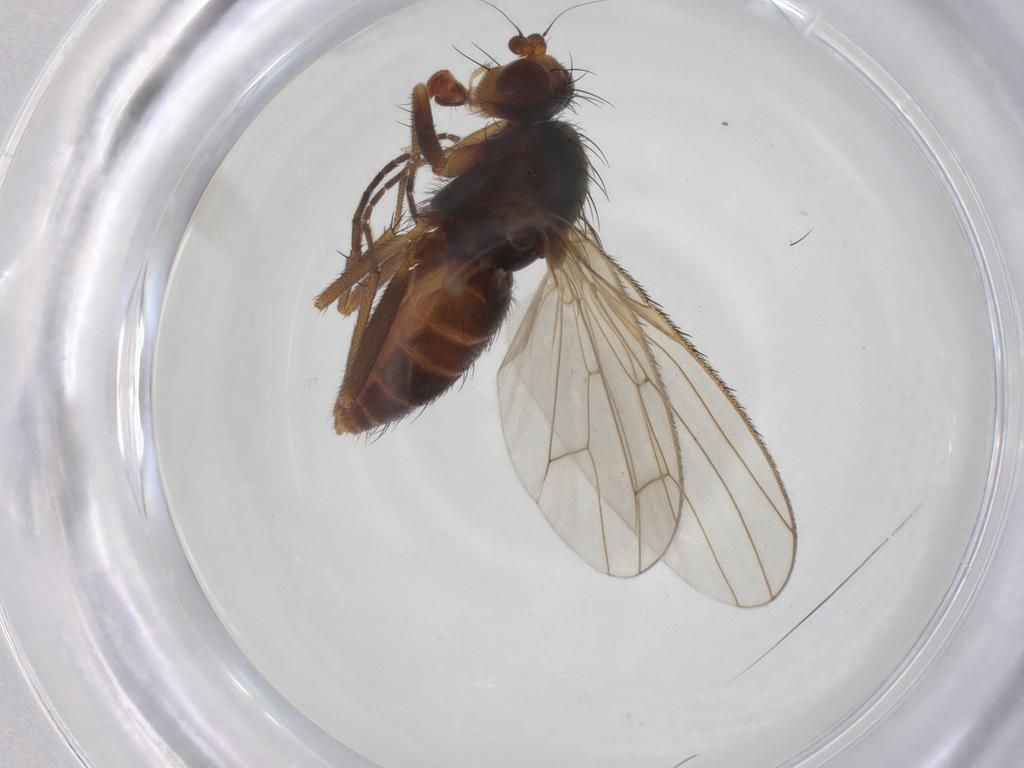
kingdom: Animalia
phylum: Arthropoda
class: Insecta
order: Diptera
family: Heleomyzidae
